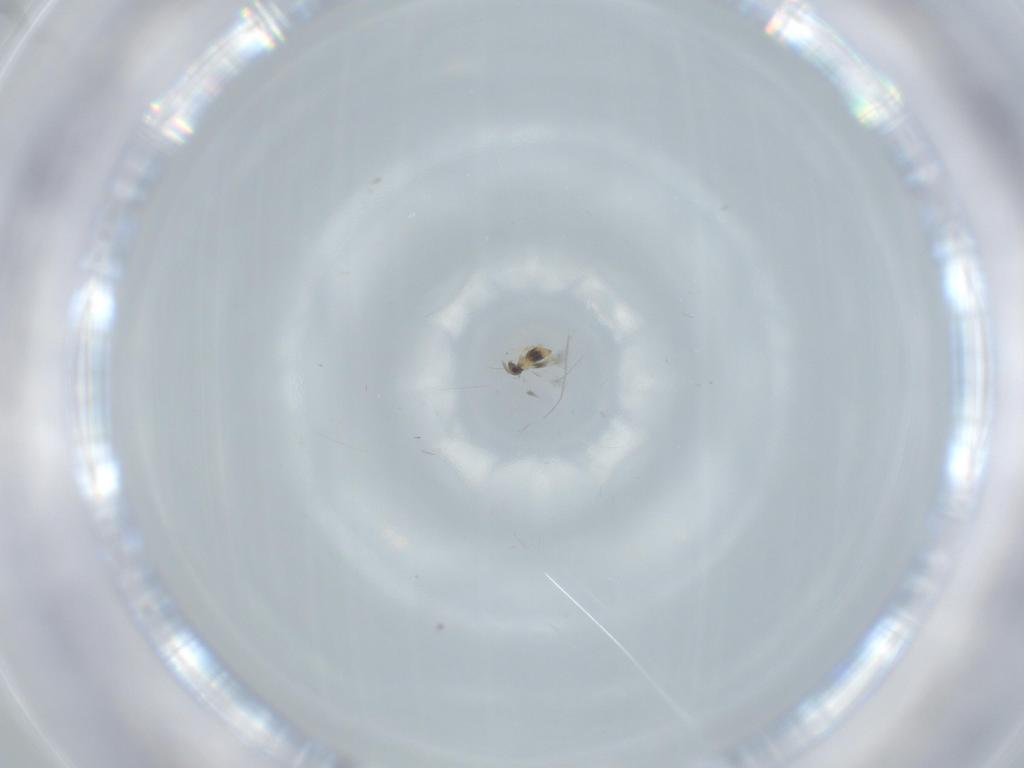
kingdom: Animalia
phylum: Arthropoda
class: Insecta
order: Hymenoptera
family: Signiphoridae
